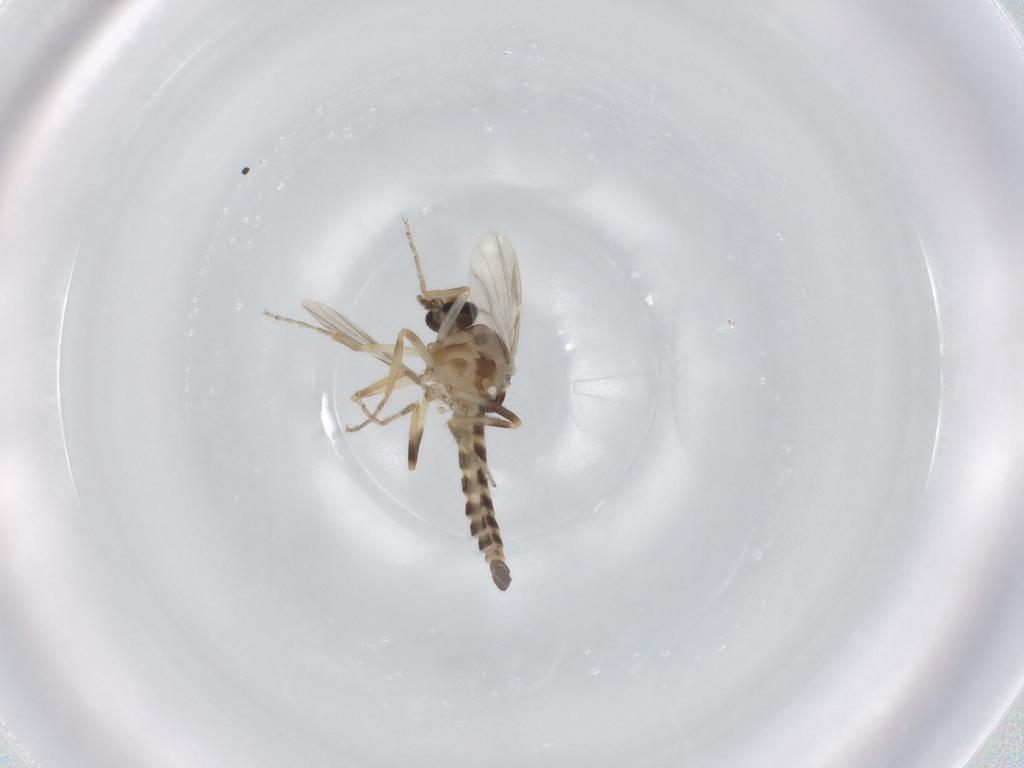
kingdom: Animalia
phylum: Arthropoda
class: Insecta
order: Diptera
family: Ceratopogonidae
